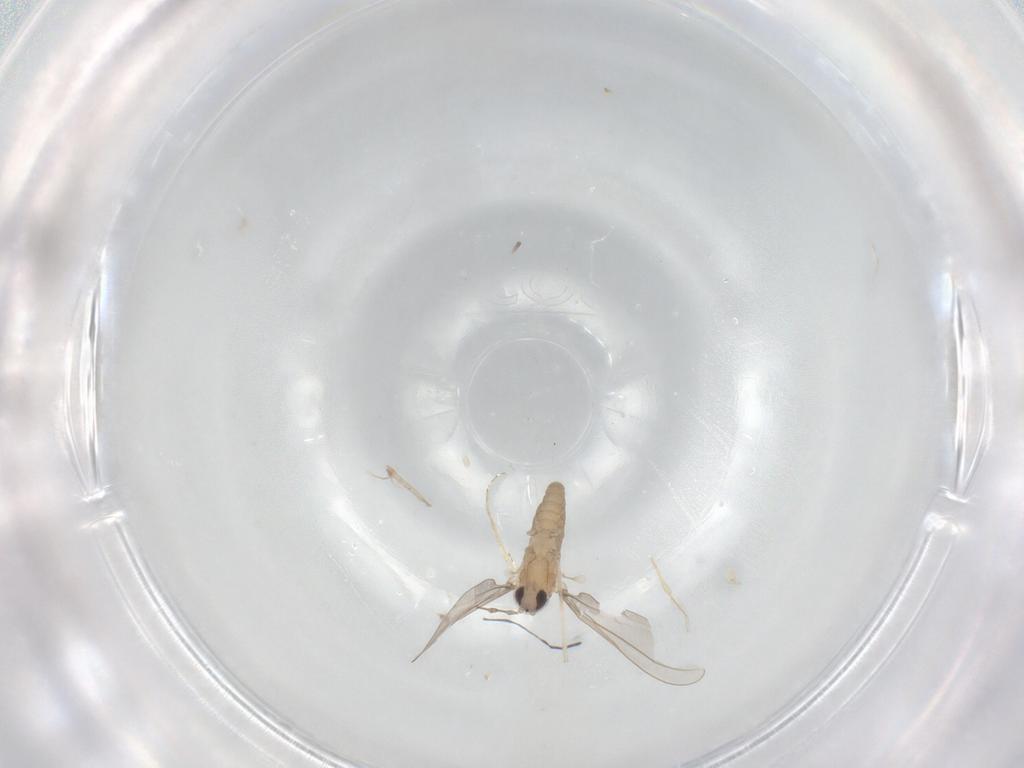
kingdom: Animalia
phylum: Arthropoda
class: Insecta
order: Diptera
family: Cecidomyiidae
